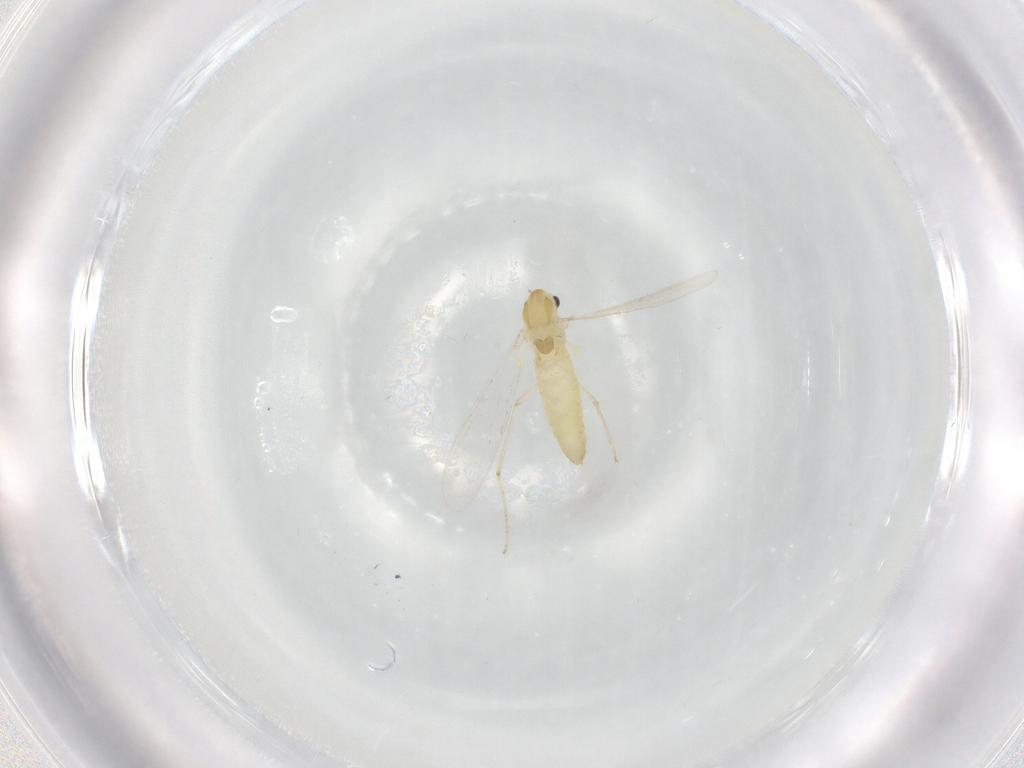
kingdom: Animalia
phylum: Arthropoda
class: Insecta
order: Diptera
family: Chironomidae
